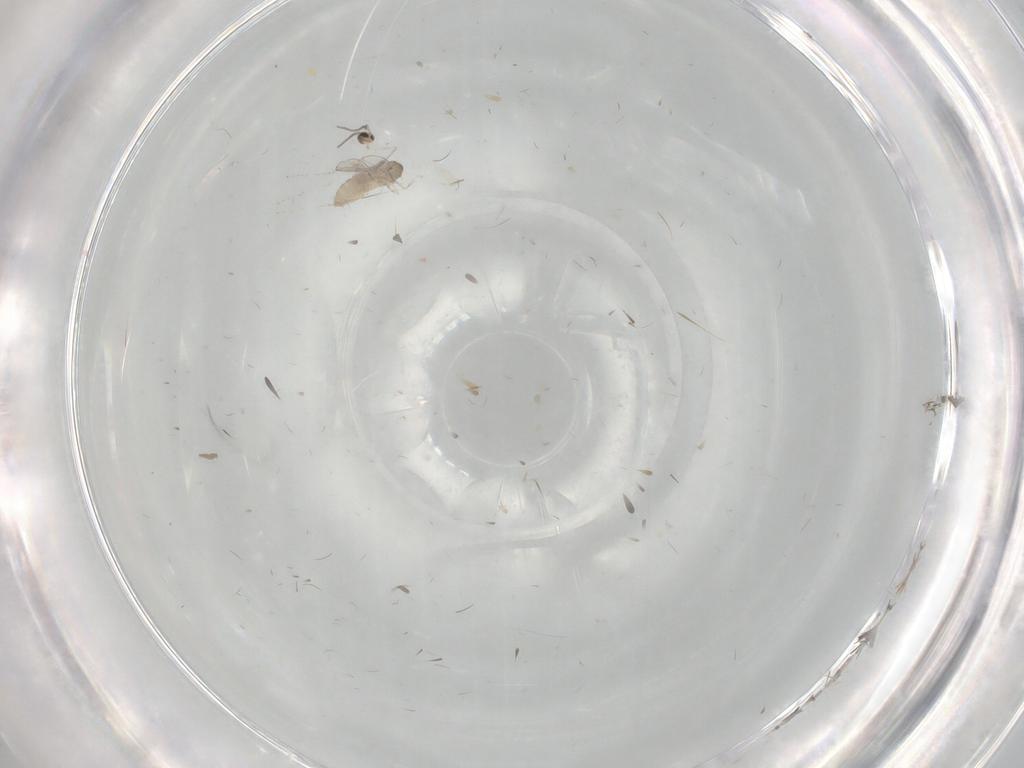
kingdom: Animalia
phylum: Arthropoda
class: Insecta
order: Diptera
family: Cecidomyiidae
